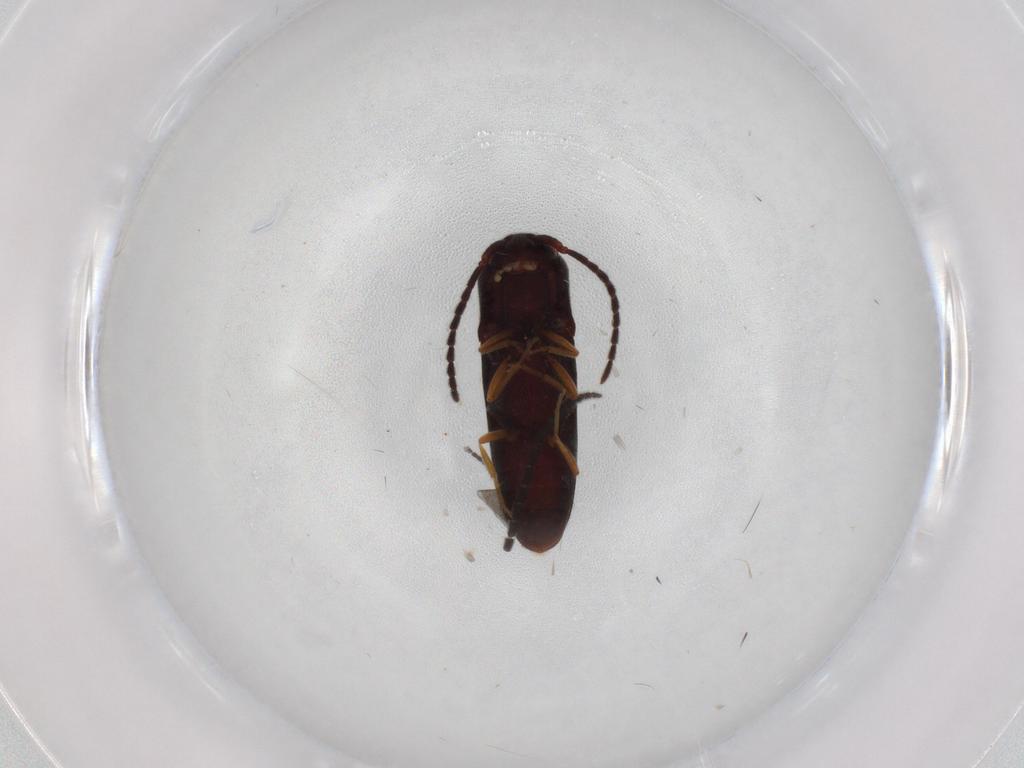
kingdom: Animalia
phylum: Arthropoda
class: Insecta
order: Coleoptera
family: Eucnemidae
